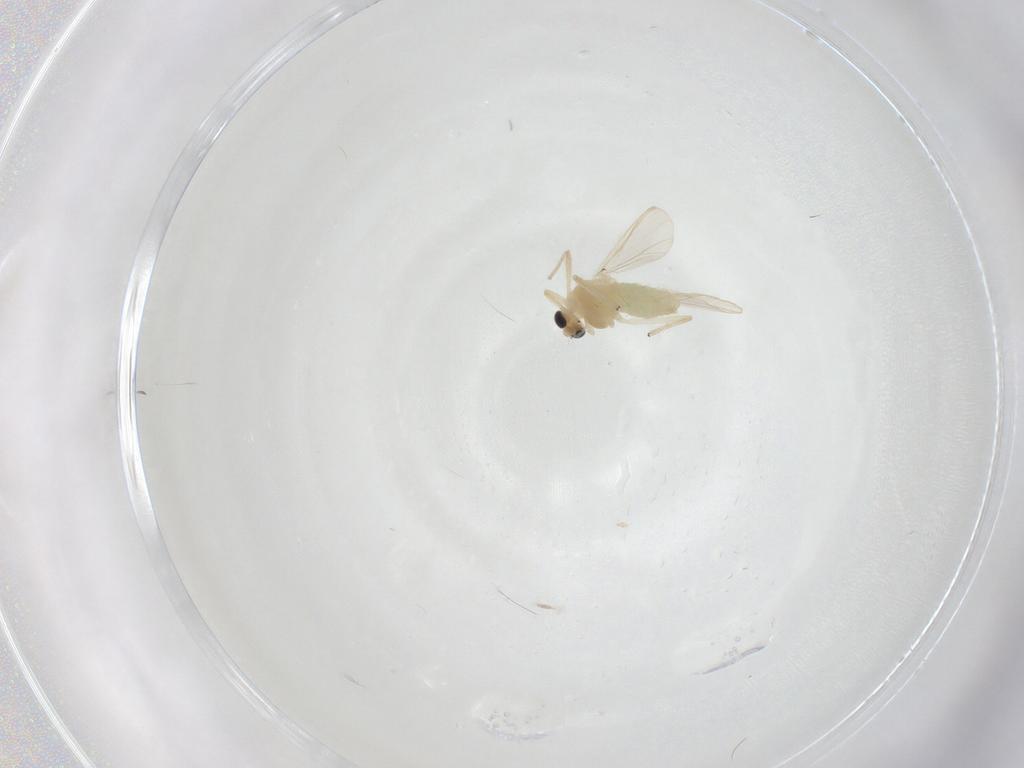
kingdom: Animalia
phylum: Arthropoda
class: Insecta
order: Diptera
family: Chironomidae
